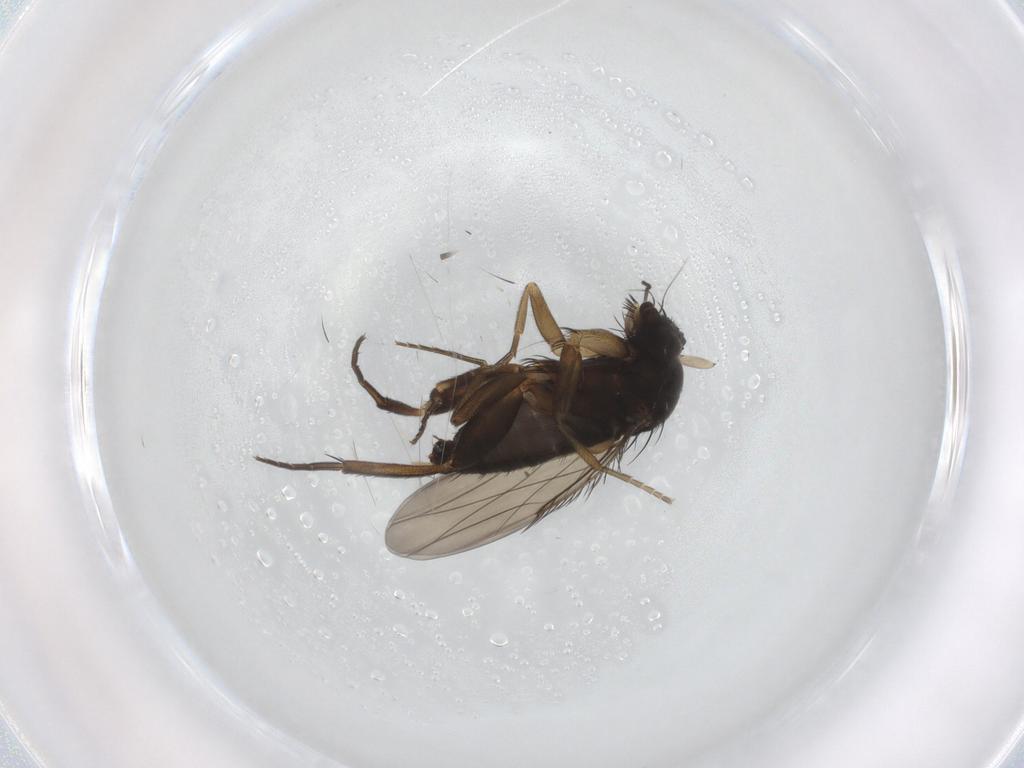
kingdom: Animalia
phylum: Arthropoda
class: Insecta
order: Diptera
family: Phoridae
